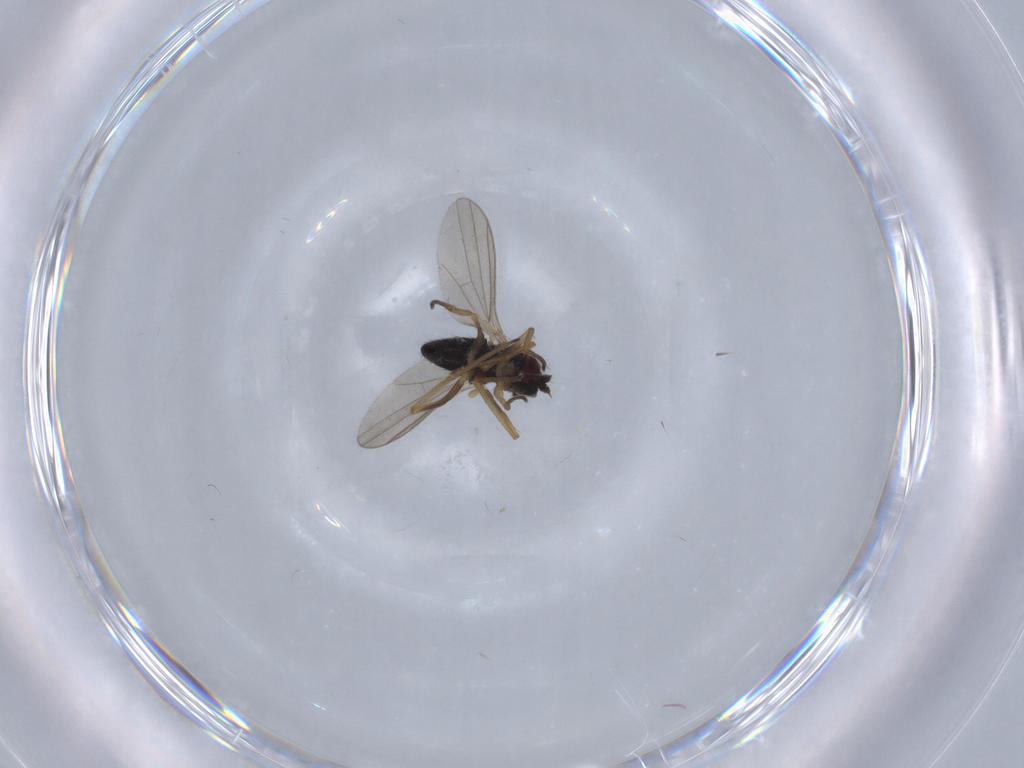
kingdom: Animalia
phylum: Arthropoda
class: Insecta
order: Diptera
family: Dolichopodidae
